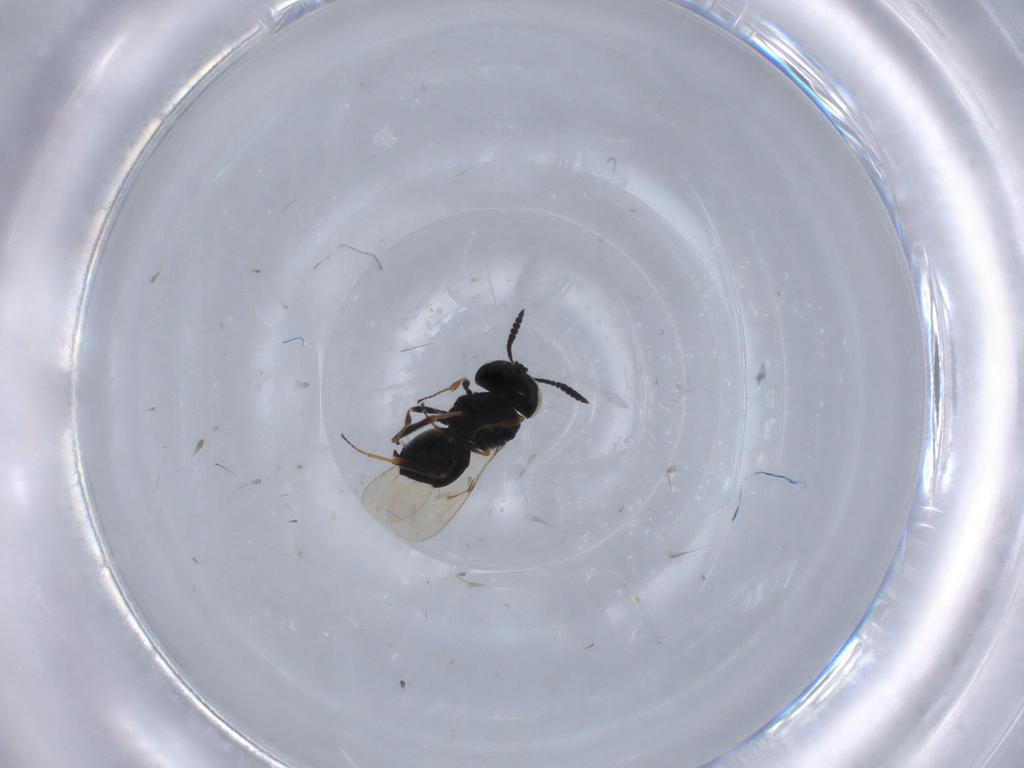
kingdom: Animalia
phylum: Arthropoda
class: Insecta
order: Hymenoptera
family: Scelionidae
